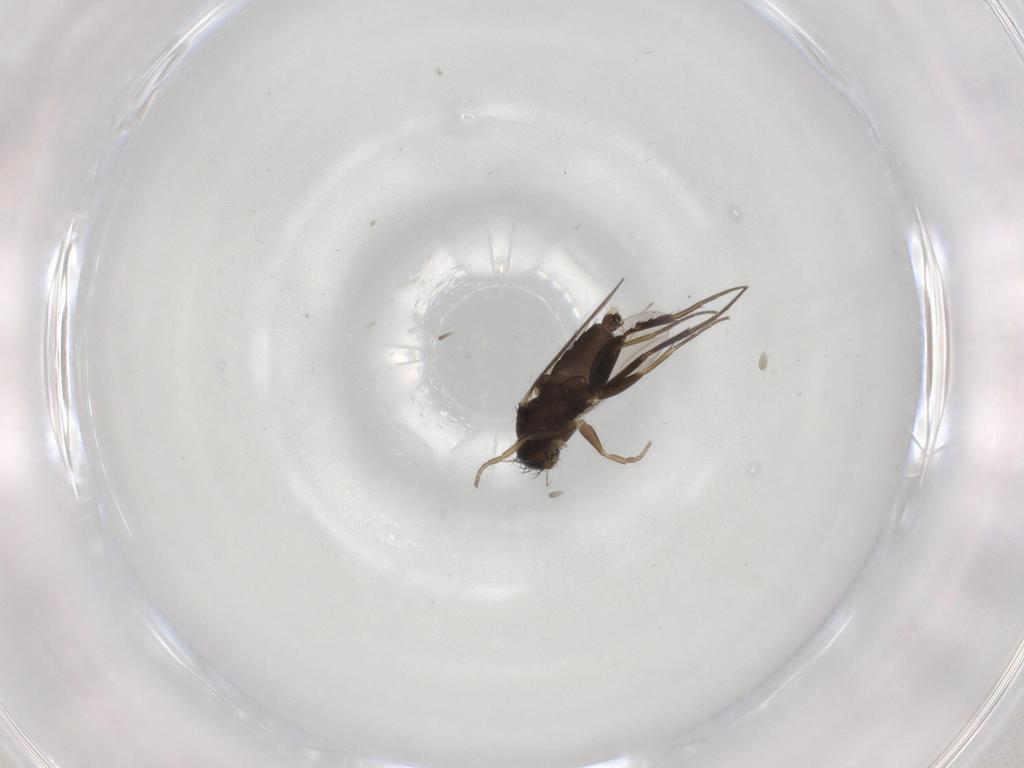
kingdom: Animalia
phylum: Arthropoda
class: Insecta
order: Diptera
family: Phoridae
